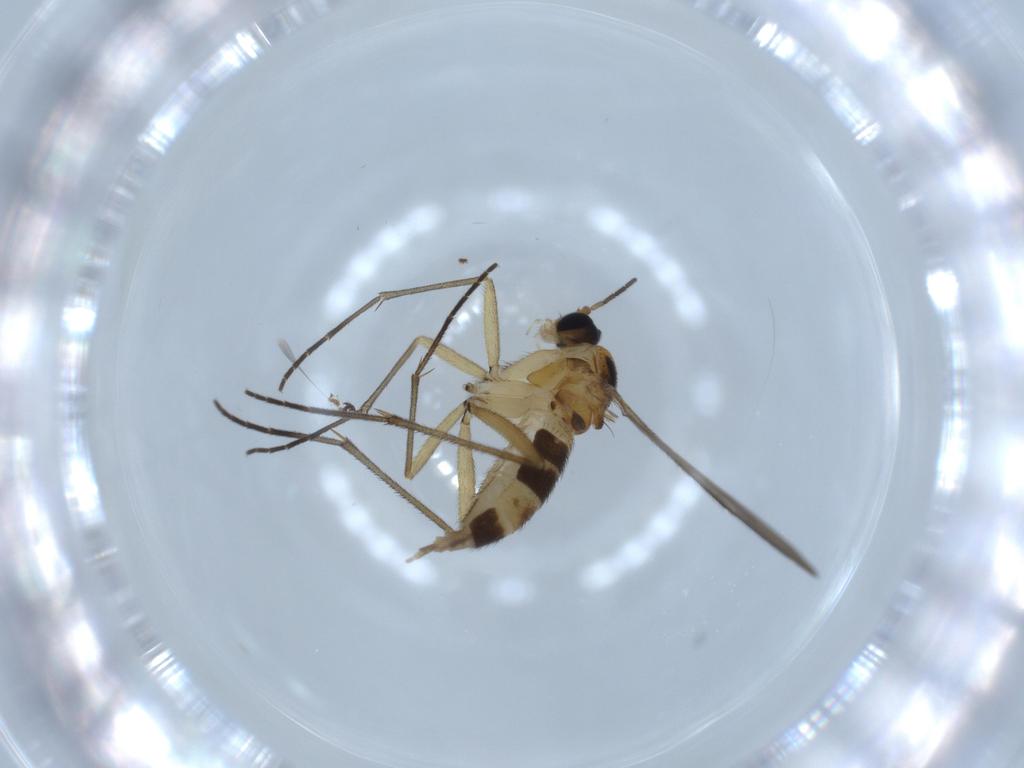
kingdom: Animalia
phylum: Arthropoda
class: Insecta
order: Diptera
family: Sciaridae
